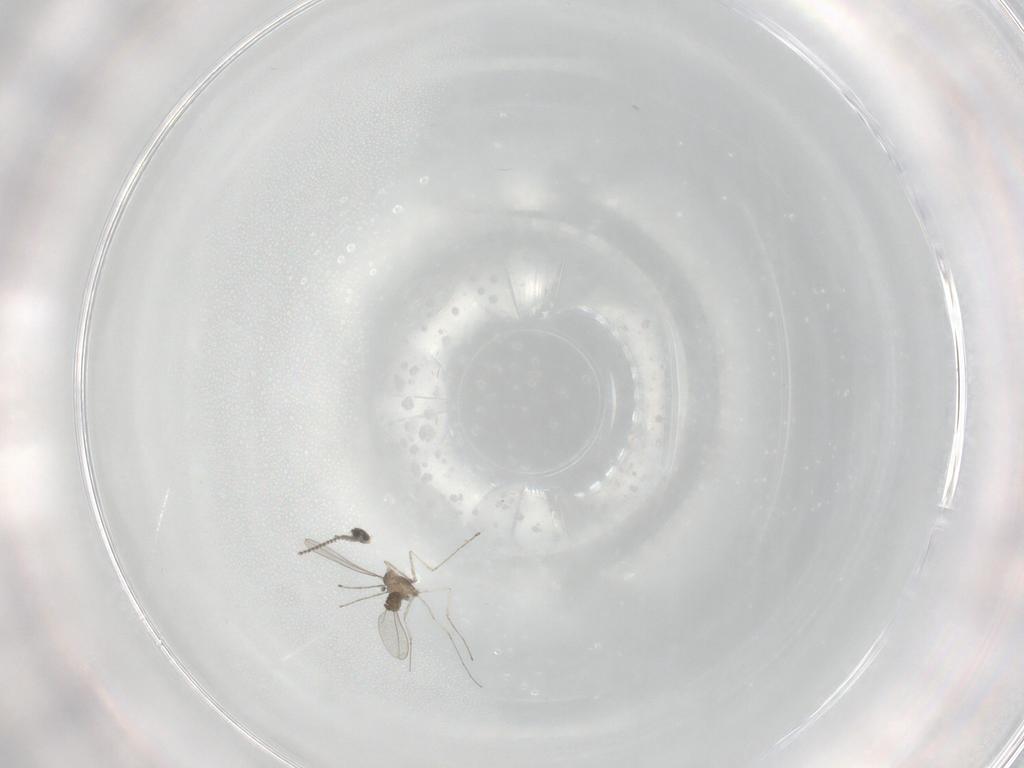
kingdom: Animalia
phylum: Arthropoda
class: Insecta
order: Diptera
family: Cecidomyiidae
